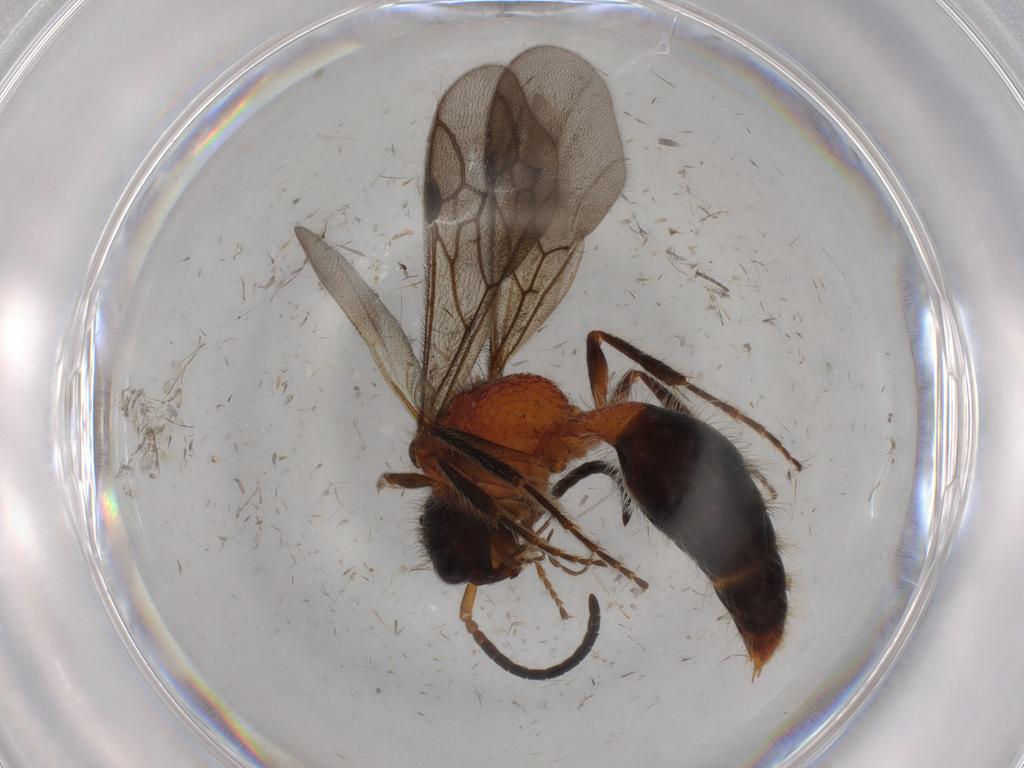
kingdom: Animalia
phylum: Arthropoda
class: Insecta
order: Hymenoptera
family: Mutillidae
